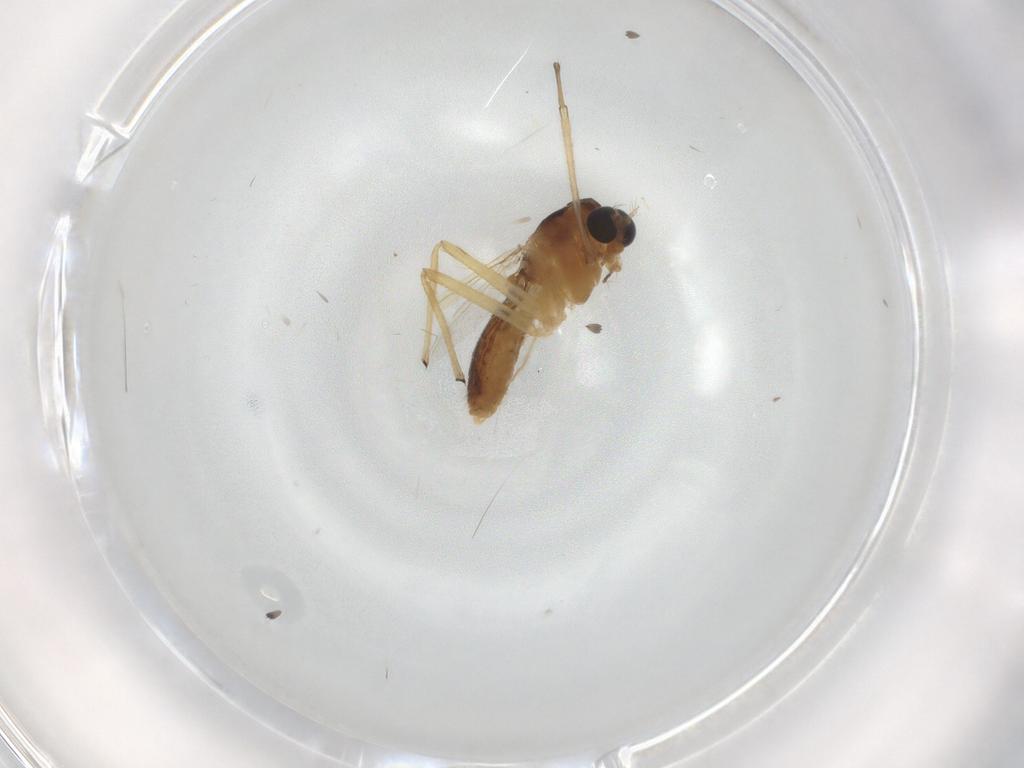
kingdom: Animalia
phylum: Arthropoda
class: Insecta
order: Diptera
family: Chironomidae
